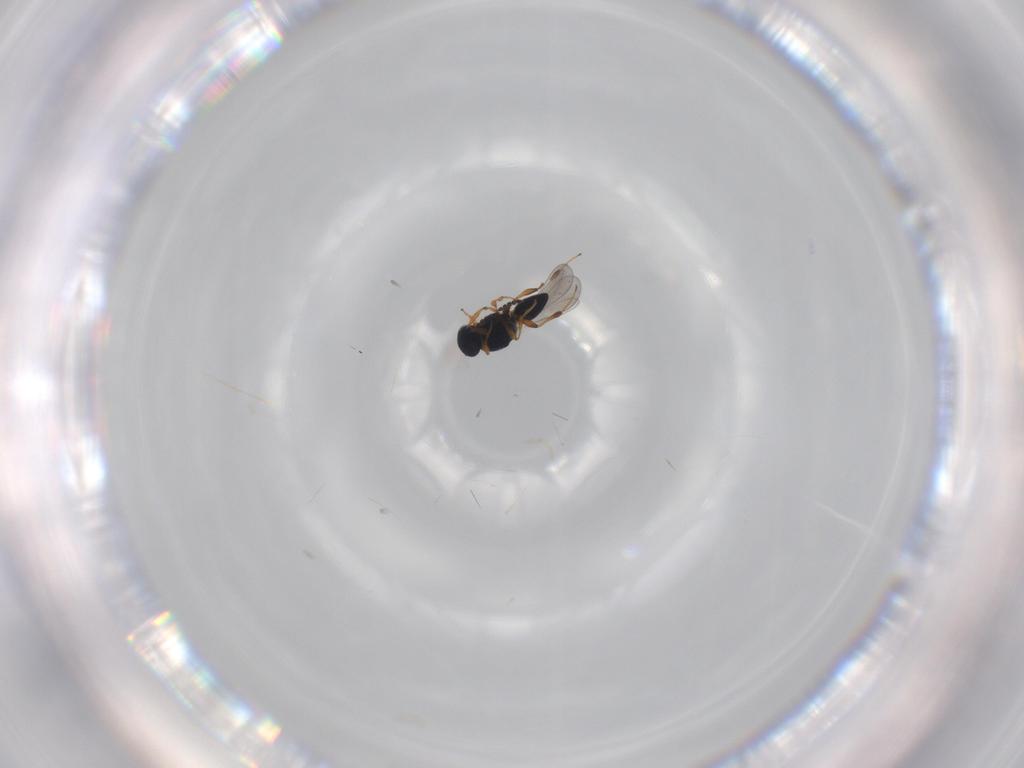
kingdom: Animalia
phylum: Arthropoda
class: Insecta
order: Hymenoptera
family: Platygastridae
